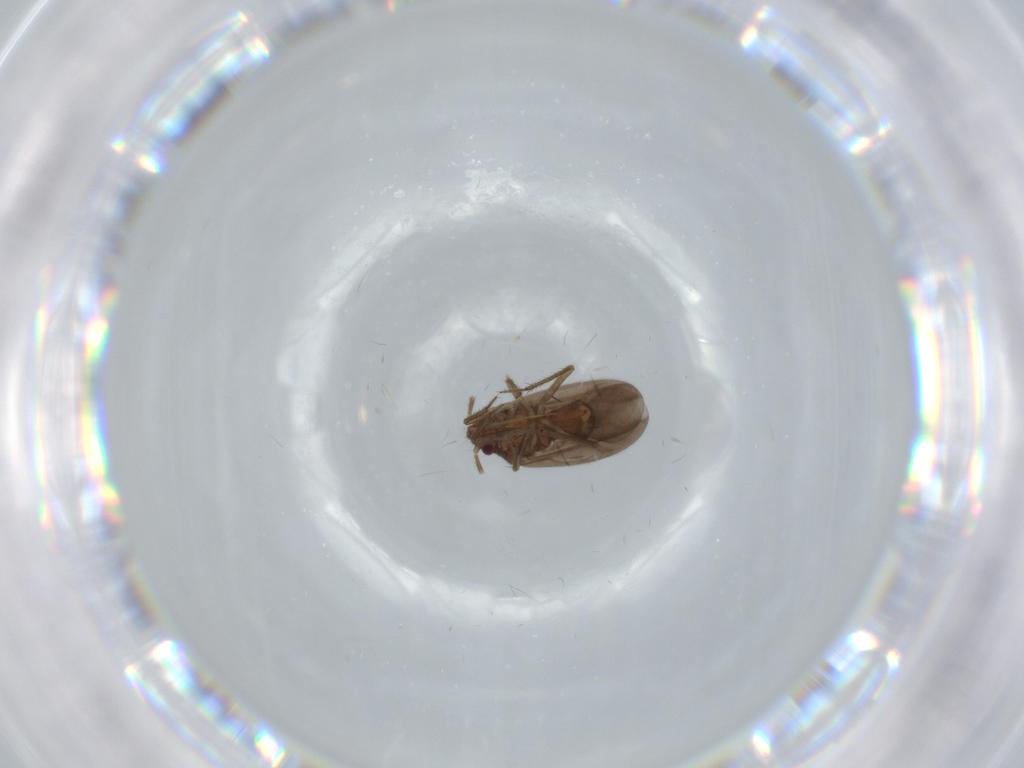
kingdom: Animalia
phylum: Arthropoda
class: Insecta
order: Hemiptera
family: Ceratocombidae
